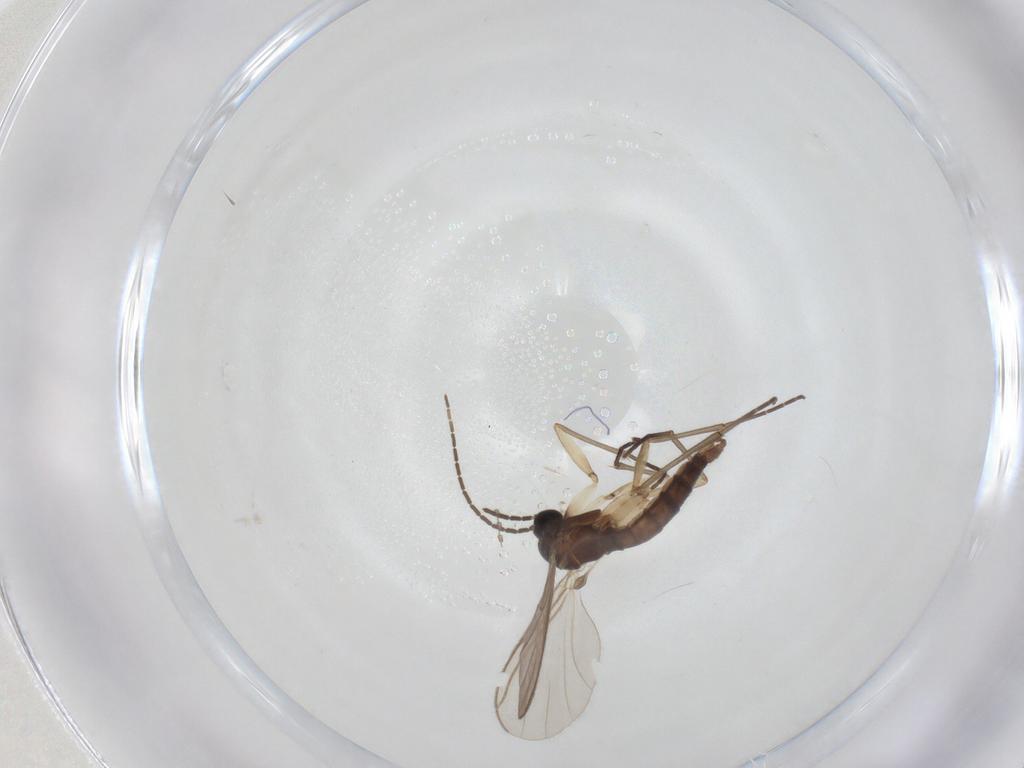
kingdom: Animalia
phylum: Arthropoda
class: Insecta
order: Diptera
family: Sciaridae
